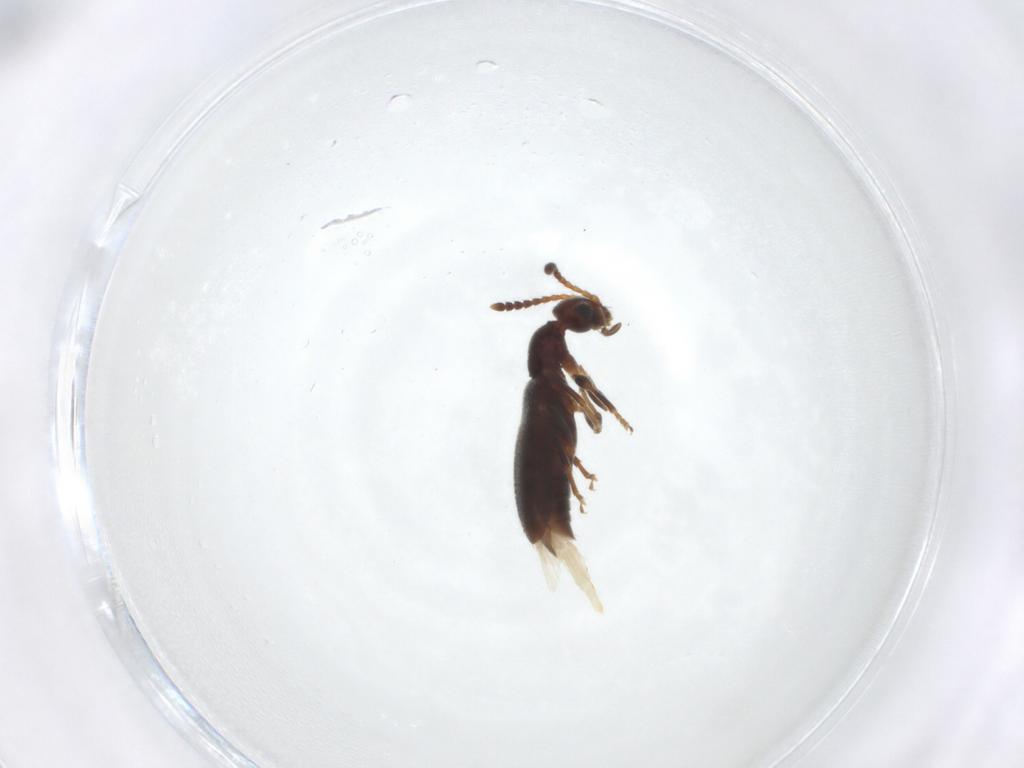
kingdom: Animalia
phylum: Arthropoda
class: Insecta
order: Coleoptera
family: Anthicidae
